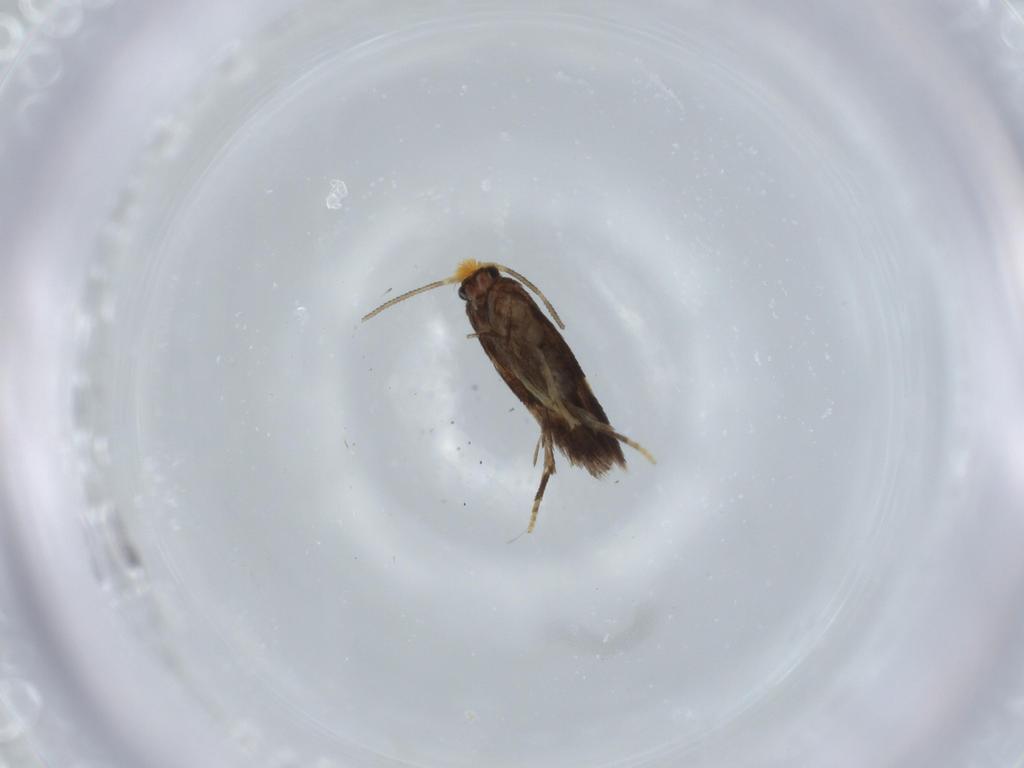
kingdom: Animalia
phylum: Arthropoda
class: Insecta
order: Lepidoptera
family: Nepticulidae
